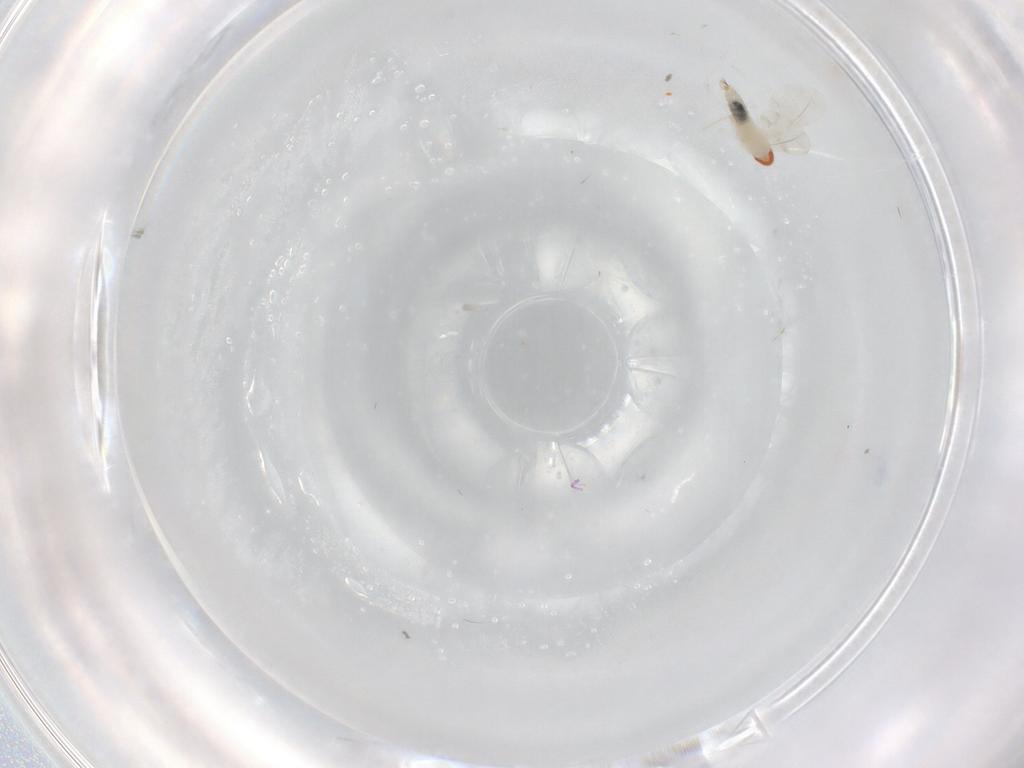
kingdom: Animalia
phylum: Arthropoda
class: Insecta
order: Diptera
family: Chironomidae
